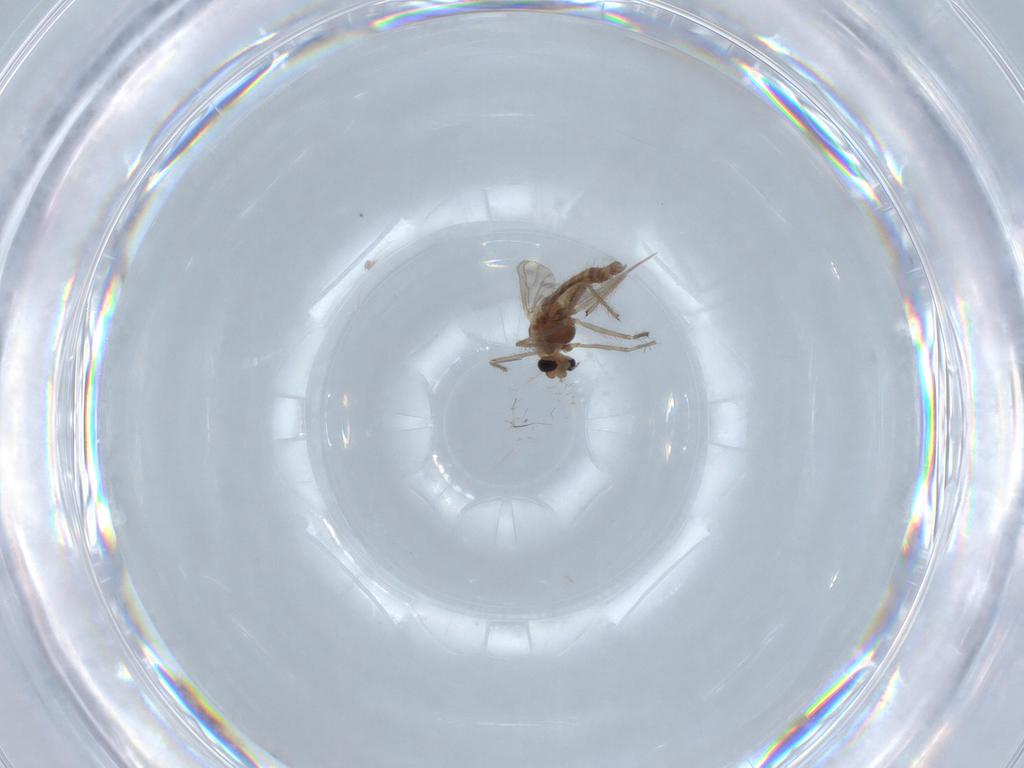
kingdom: Animalia
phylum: Arthropoda
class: Insecta
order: Diptera
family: Chironomidae
